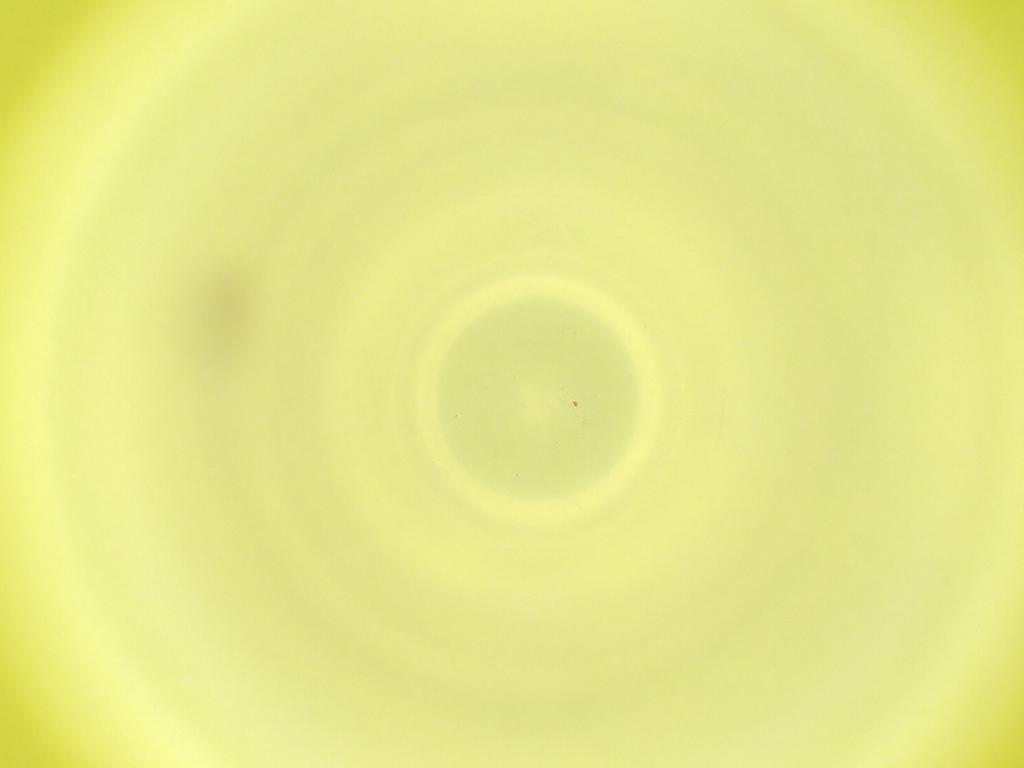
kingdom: Animalia
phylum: Arthropoda
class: Insecta
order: Diptera
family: Cecidomyiidae
